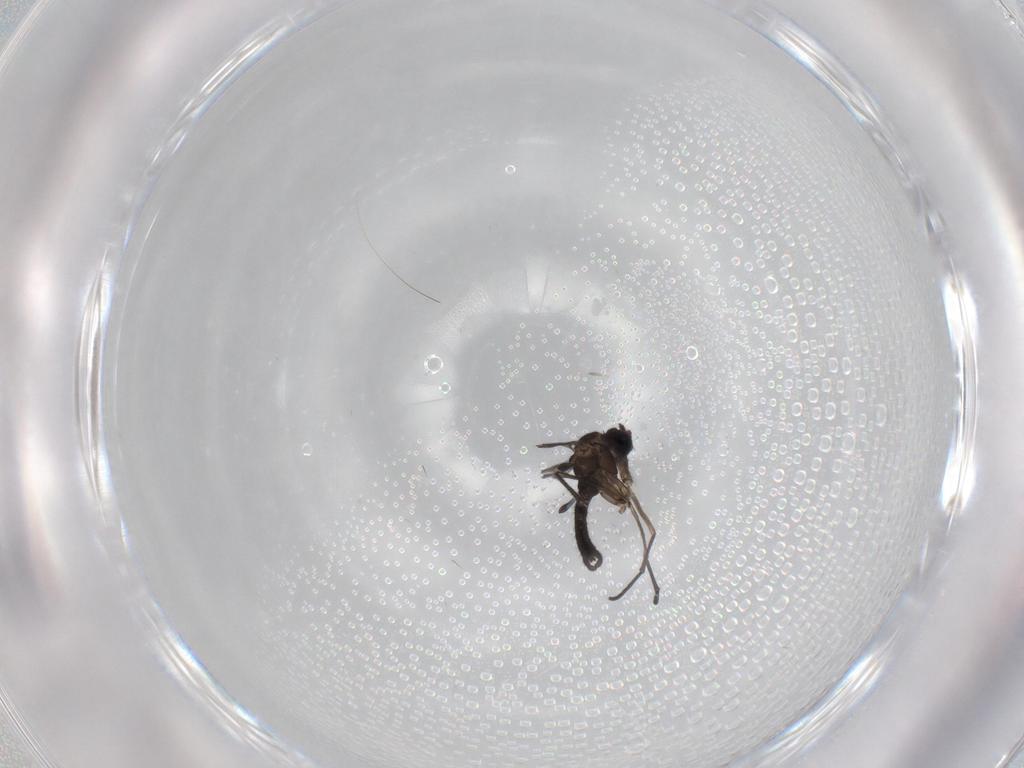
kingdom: Animalia
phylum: Arthropoda
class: Insecta
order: Diptera
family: Sciaridae
